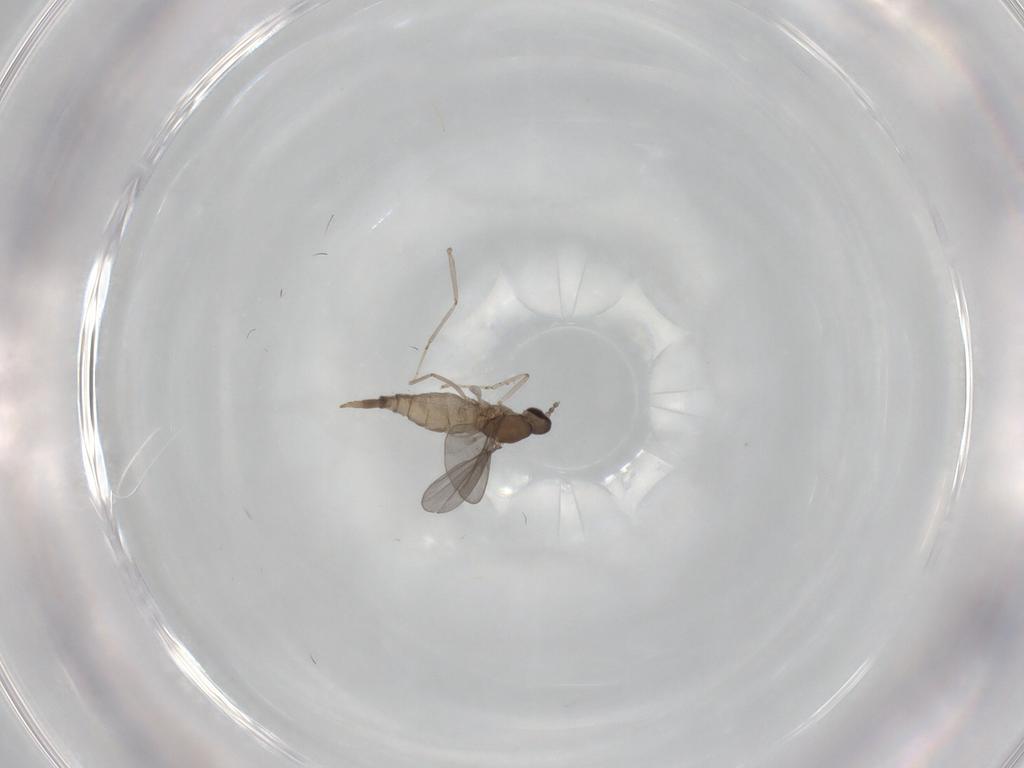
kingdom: Animalia
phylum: Arthropoda
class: Insecta
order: Diptera
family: Cecidomyiidae
